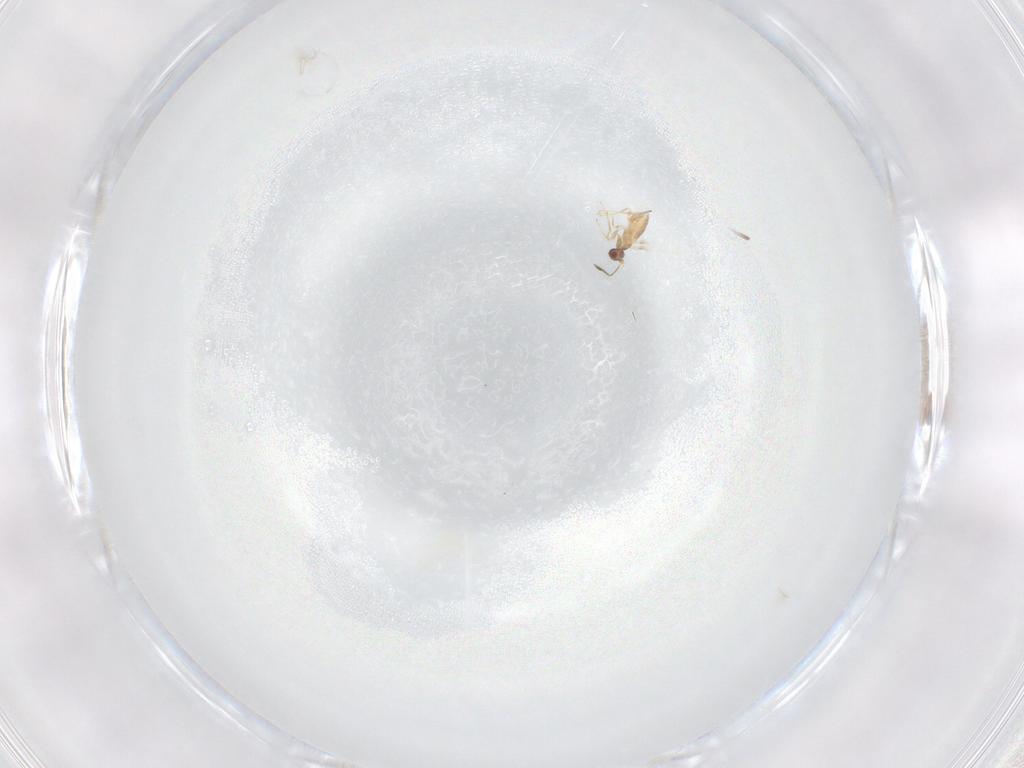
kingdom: Animalia
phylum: Arthropoda
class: Insecta
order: Hymenoptera
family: Mymaridae
